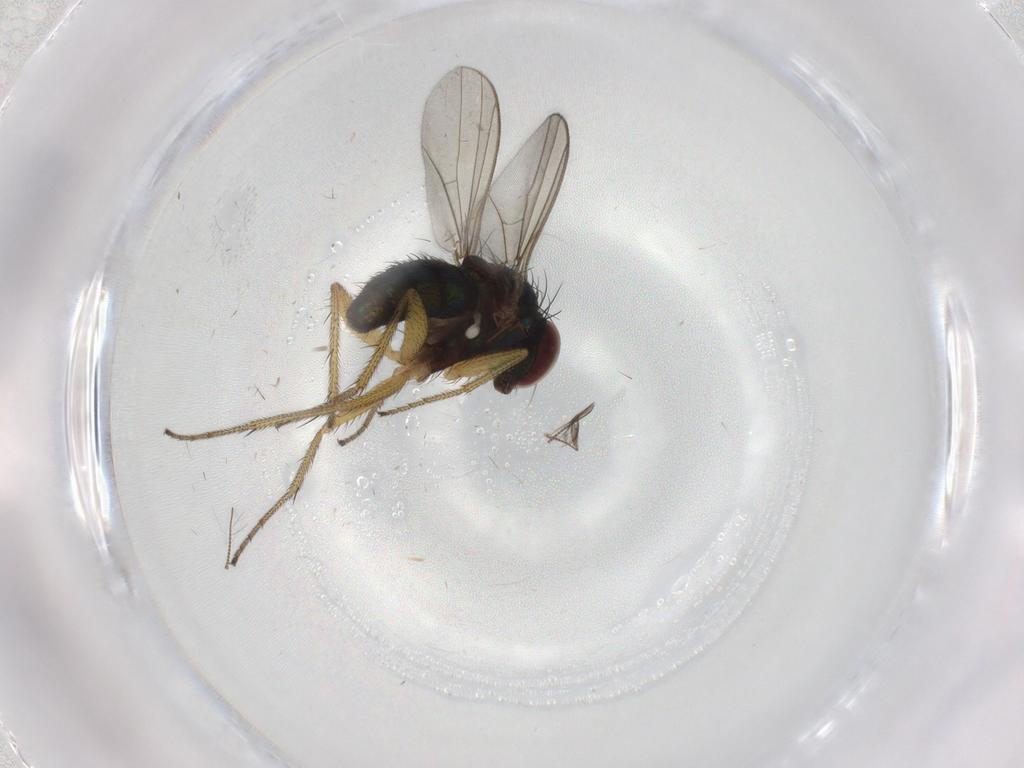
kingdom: Animalia
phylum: Arthropoda
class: Insecta
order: Diptera
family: Dolichopodidae
